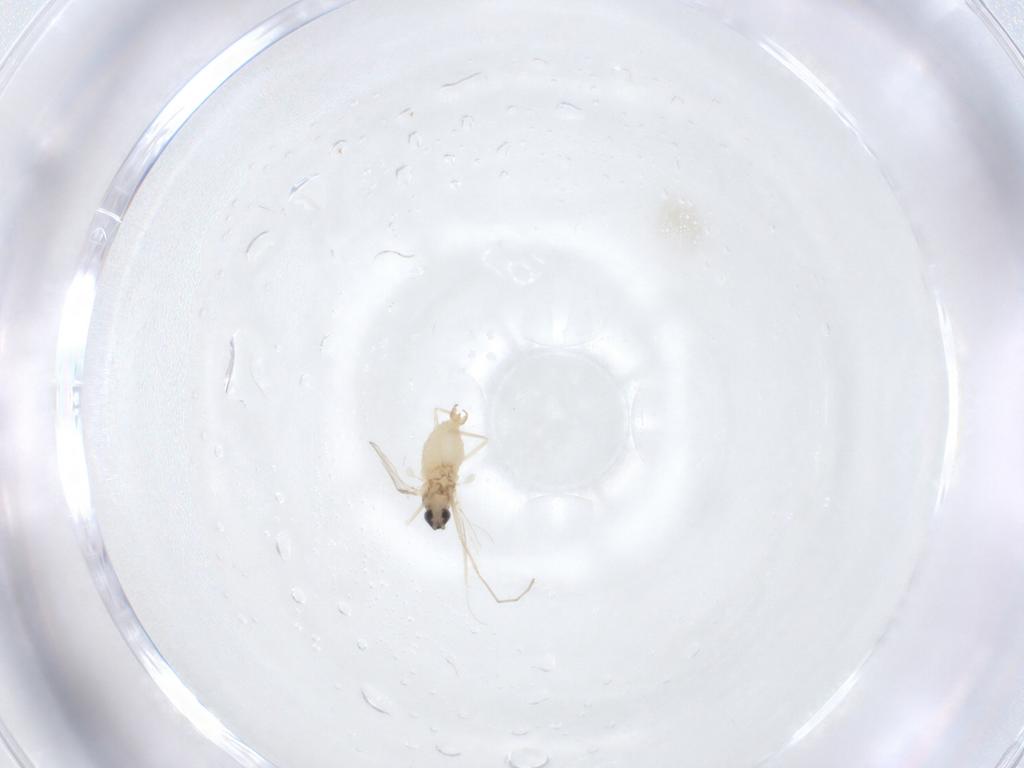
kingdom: Animalia
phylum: Arthropoda
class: Insecta
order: Diptera
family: Cecidomyiidae
